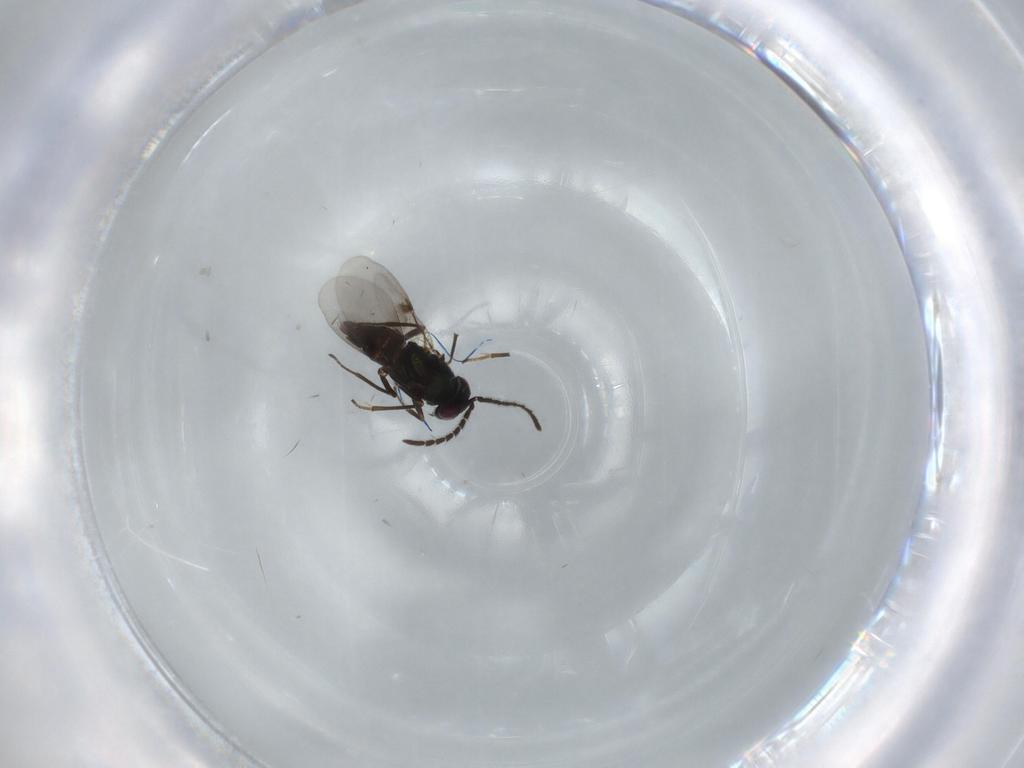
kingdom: Animalia
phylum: Arthropoda
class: Insecta
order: Hymenoptera
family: Encyrtidae
